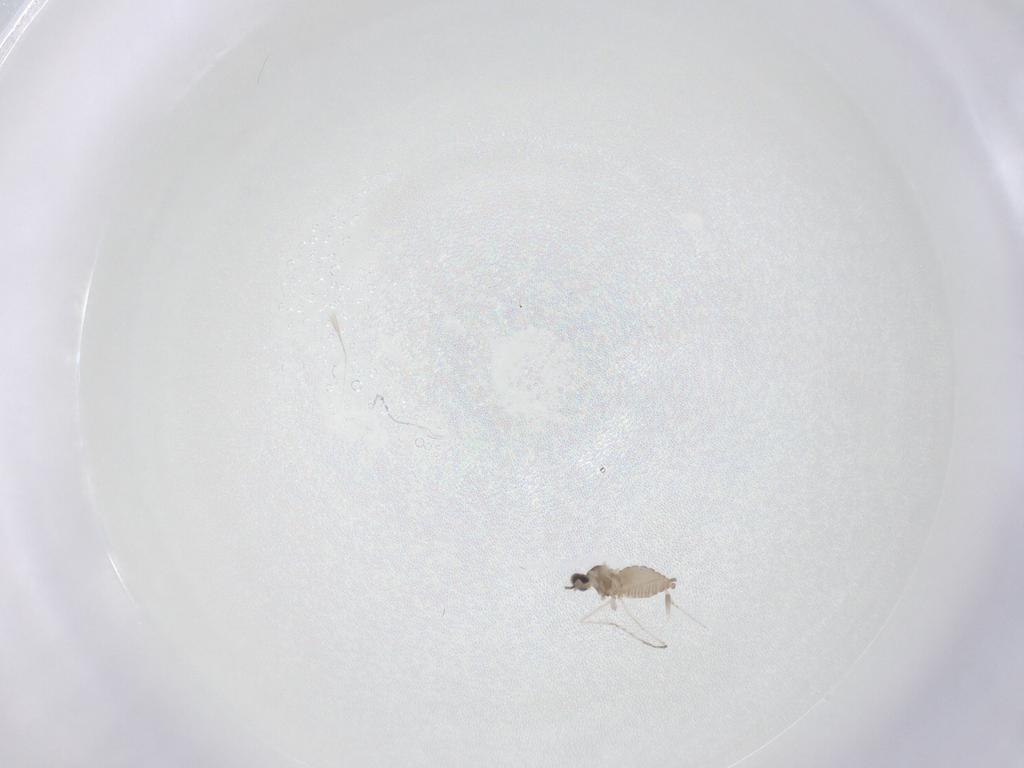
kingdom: Animalia
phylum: Arthropoda
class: Insecta
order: Diptera
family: Cecidomyiidae
